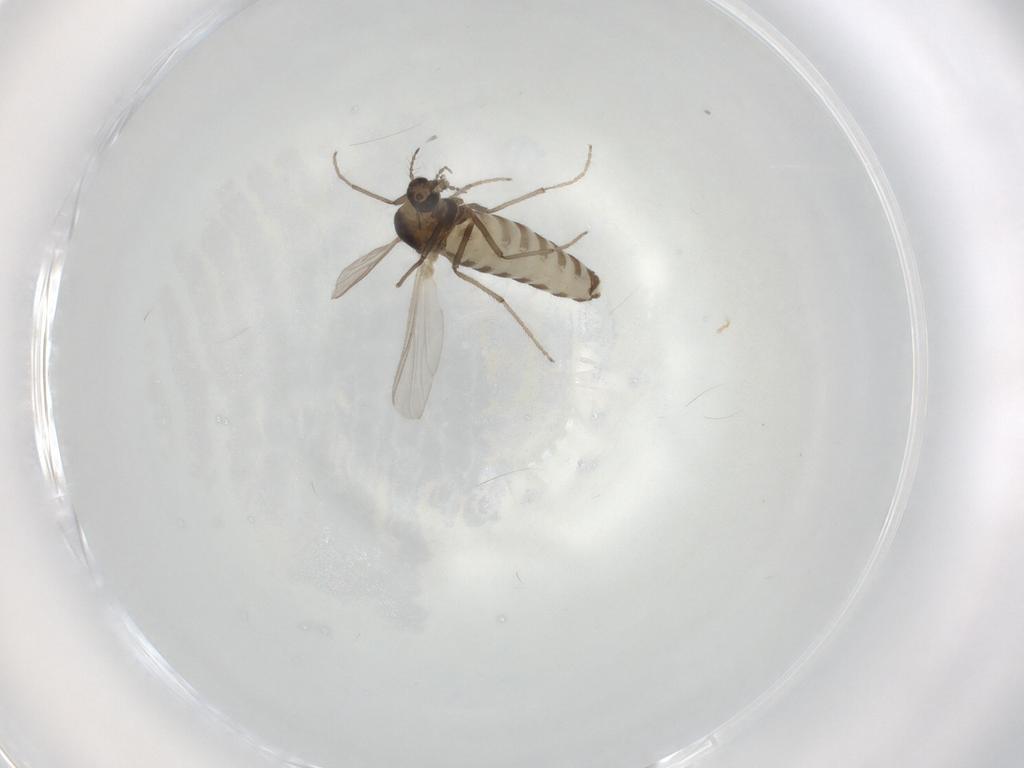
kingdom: Animalia
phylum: Arthropoda
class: Insecta
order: Diptera
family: Chironomidae
